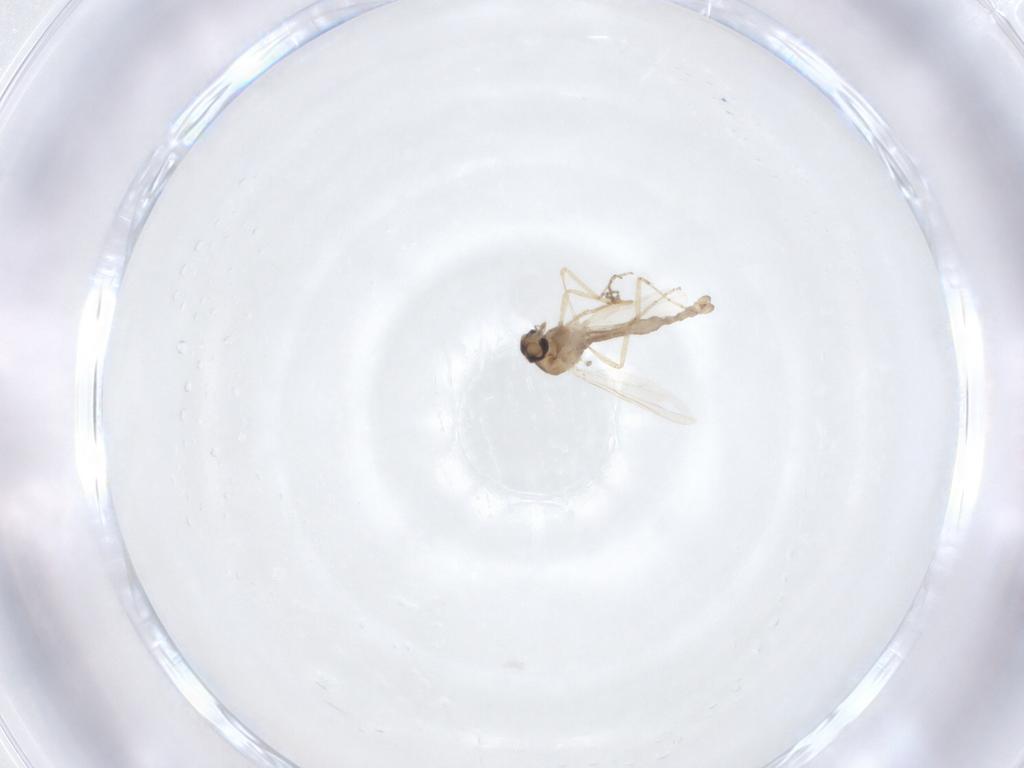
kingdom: Animalia
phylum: Arthropoda
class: Insecta
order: Diptera
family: Ceratopogonidae
